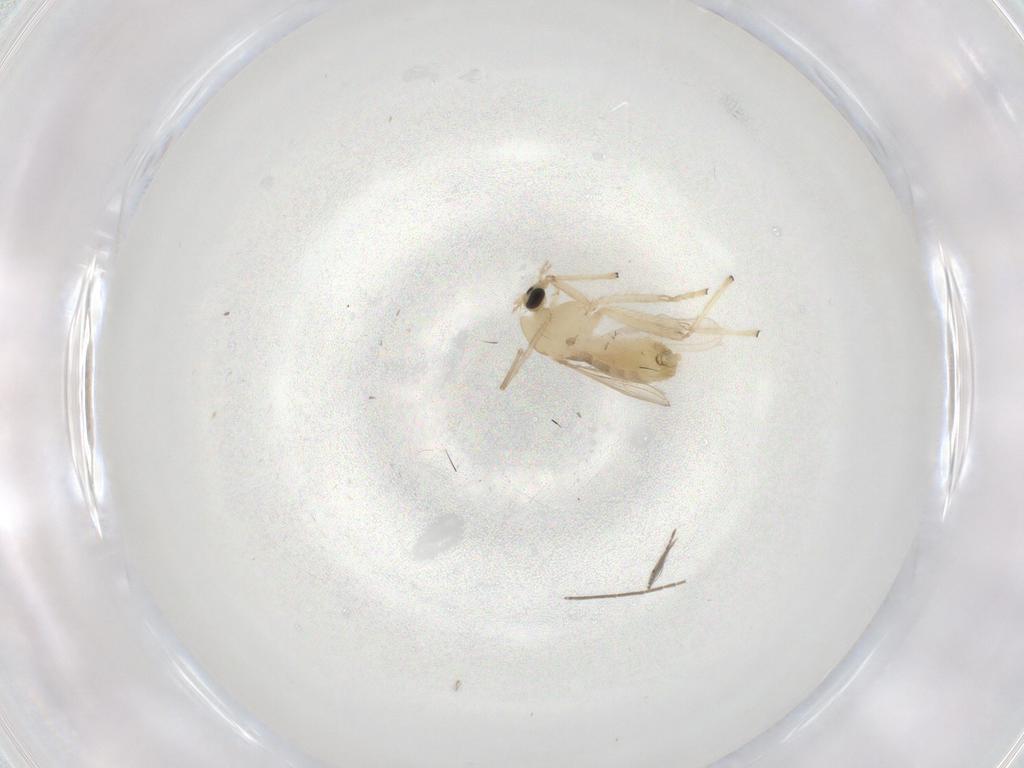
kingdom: Animalia
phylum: Arthropoda
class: Insecta
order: Diptera
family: Chironomidae
